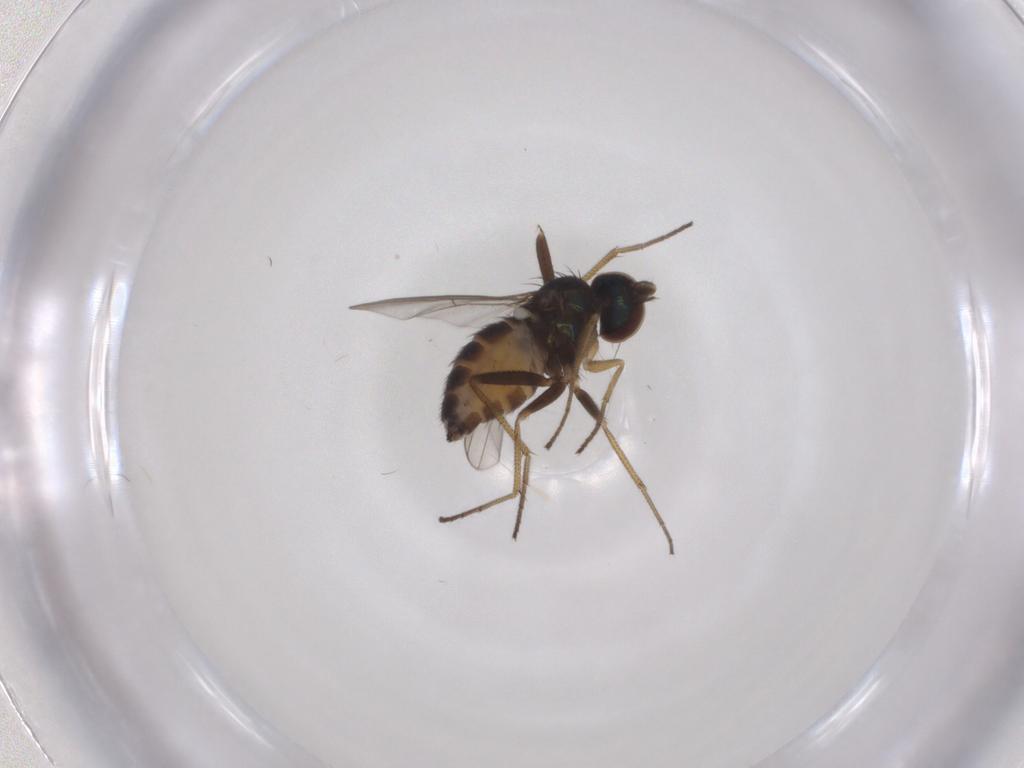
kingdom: Animalia
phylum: Arthropoda
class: Insecta
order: Diptera
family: Dolichopodidae
